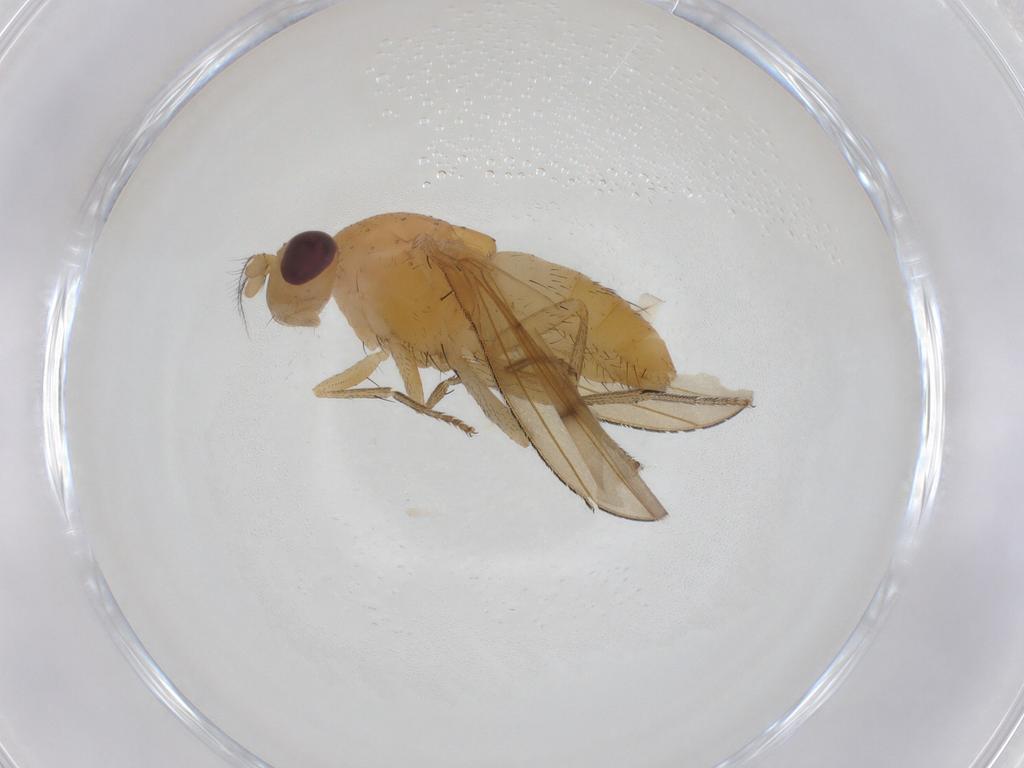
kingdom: Animalia
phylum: Arthropoda
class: Insecta
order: Diptera
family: Lauxaniidae
